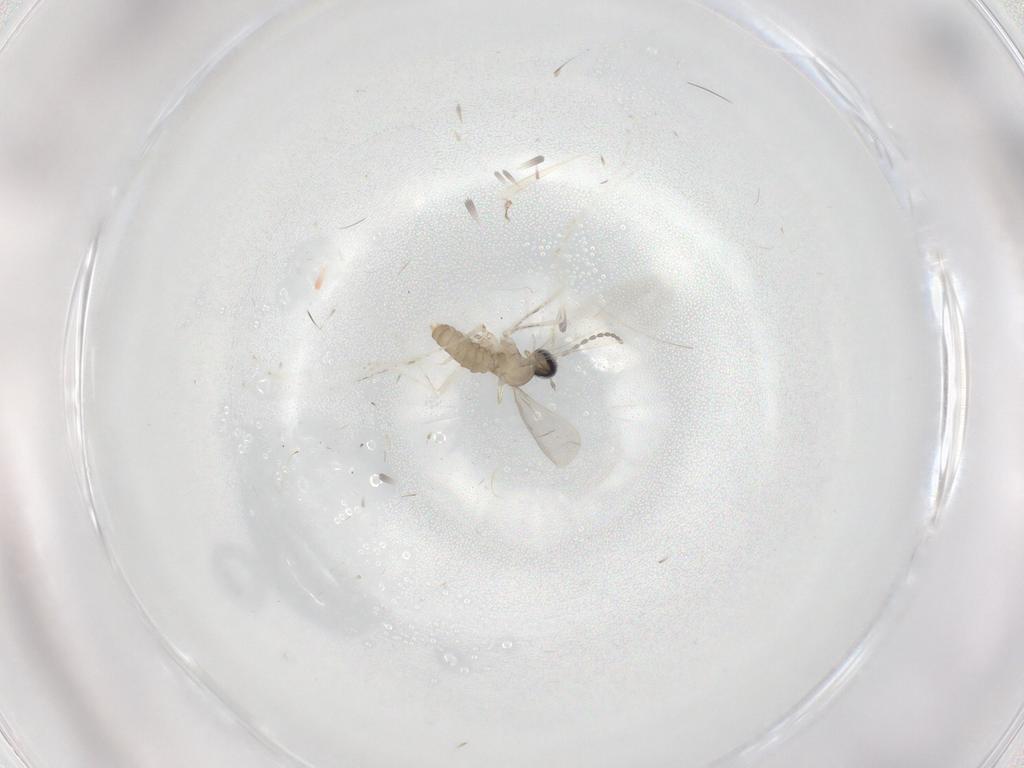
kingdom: Animalia
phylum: Arthropoda
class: Insecta
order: Diptera
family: Cecidomyiidae
